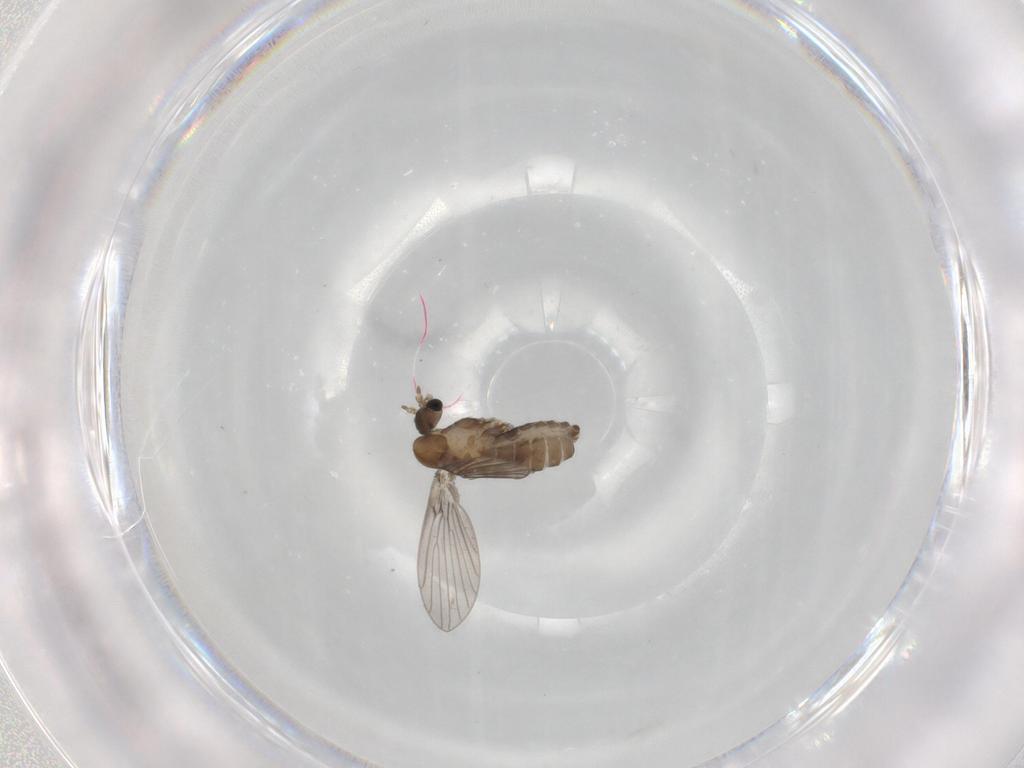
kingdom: Animalia
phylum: Arthropoda
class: Insecta
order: Diptera
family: Psychodidae
